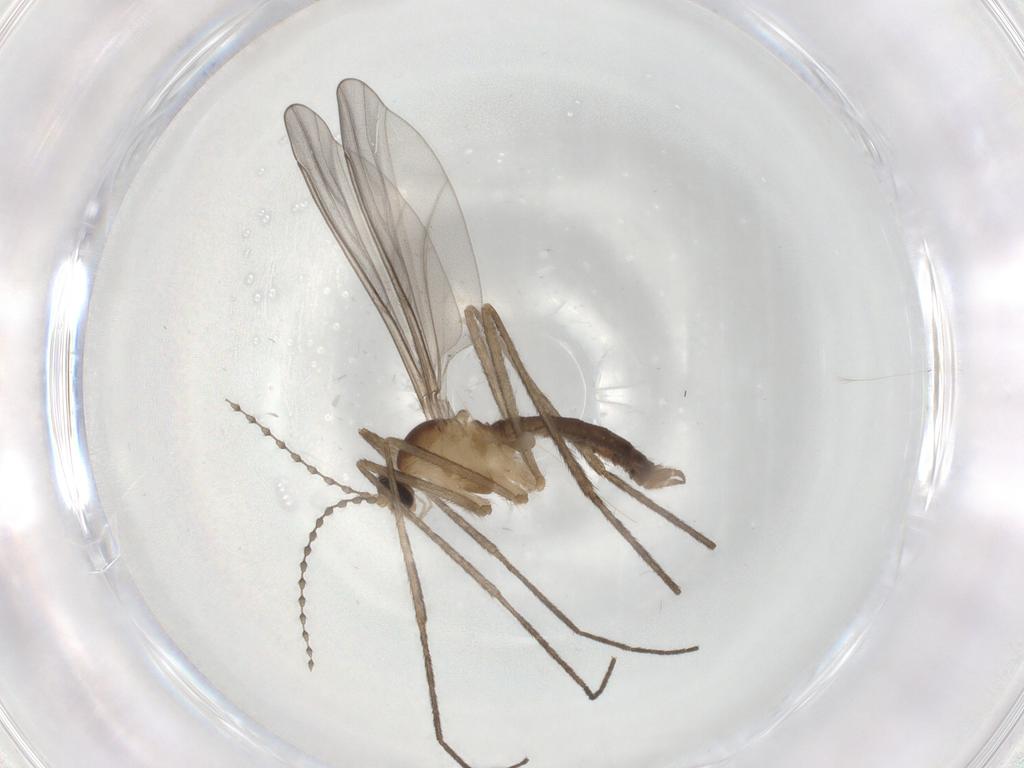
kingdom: Animalia
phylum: Arthropoda
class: Insecta
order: Diptera
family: Cecidomyiidae
